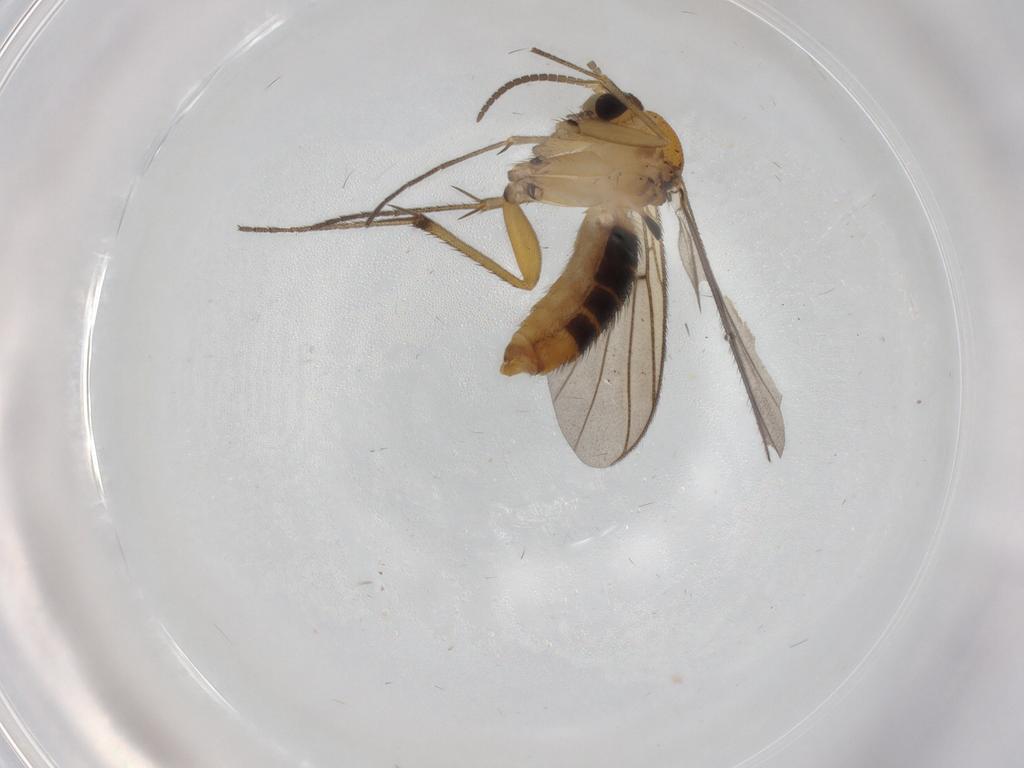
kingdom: Animalia
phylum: Arthropoda
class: Insecta
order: Diptera
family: Mycetophilidae
